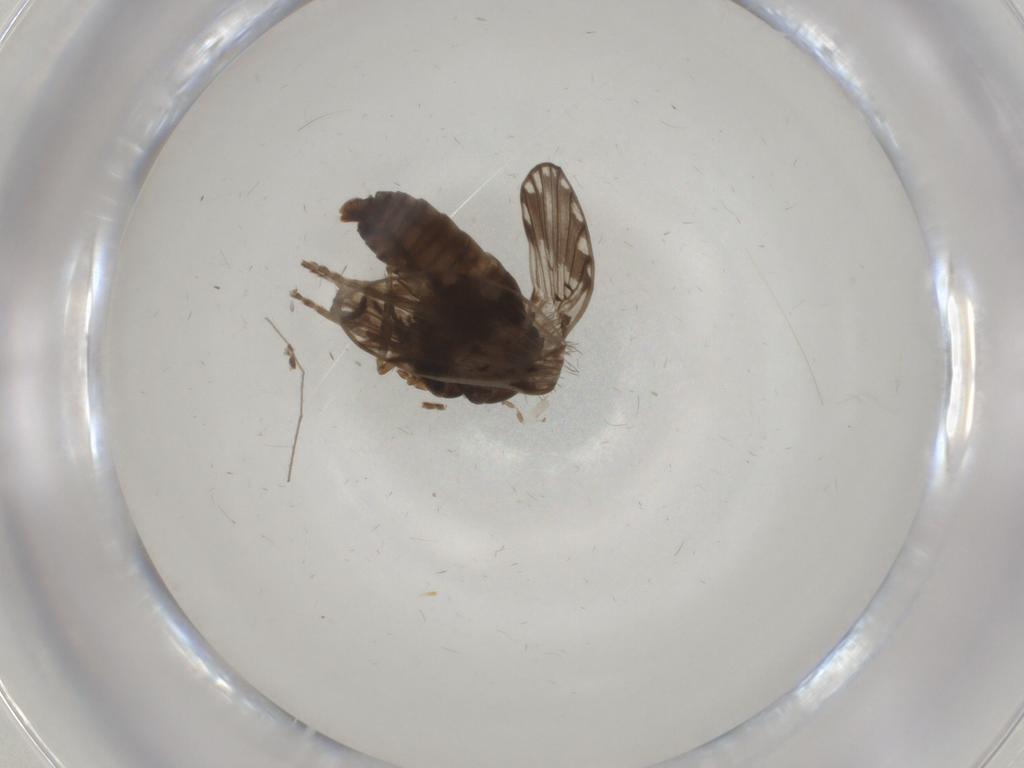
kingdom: Animalia
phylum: Arthropoda
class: Insecta
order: Diptera
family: Psychodidae
